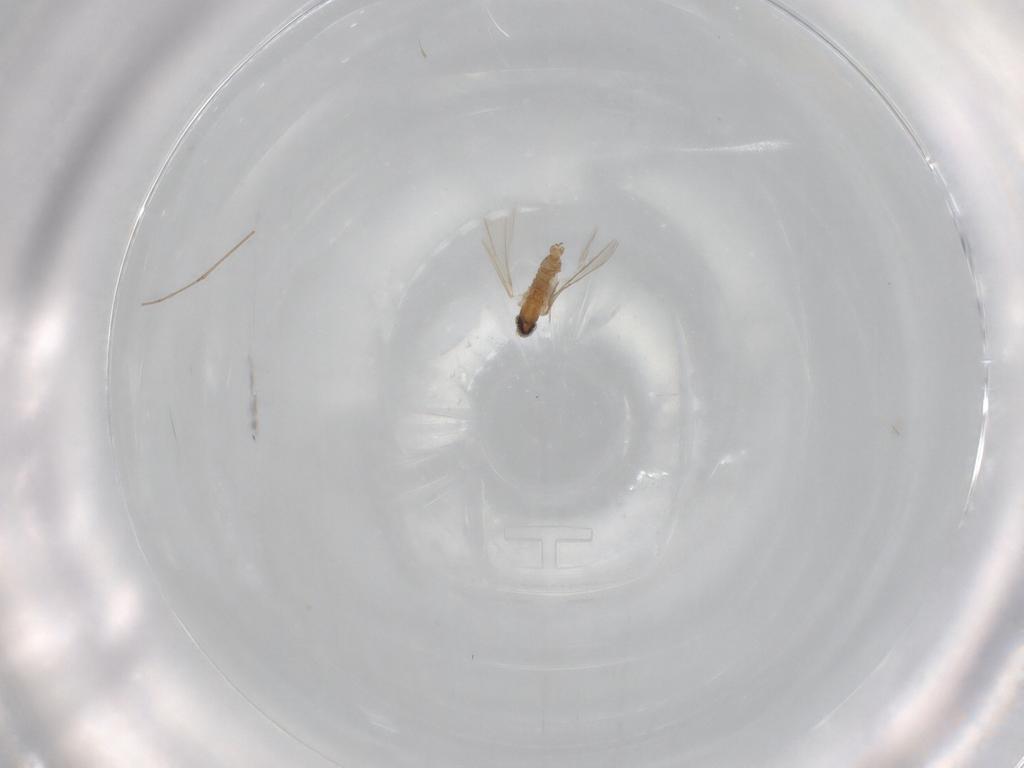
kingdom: Animalia
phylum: Arthropoda
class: Insecta
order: Diptera
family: Cecidomyiidae
